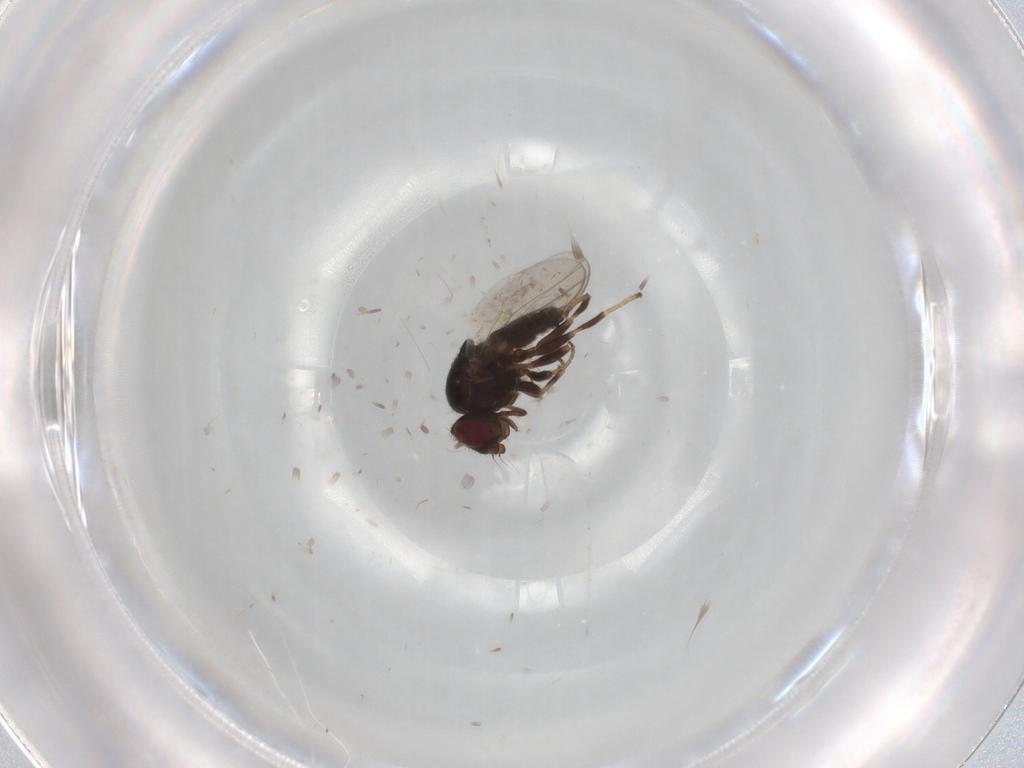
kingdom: Animalia
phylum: Arthropoda
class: Insecta
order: Diptera
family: Chloropidae
